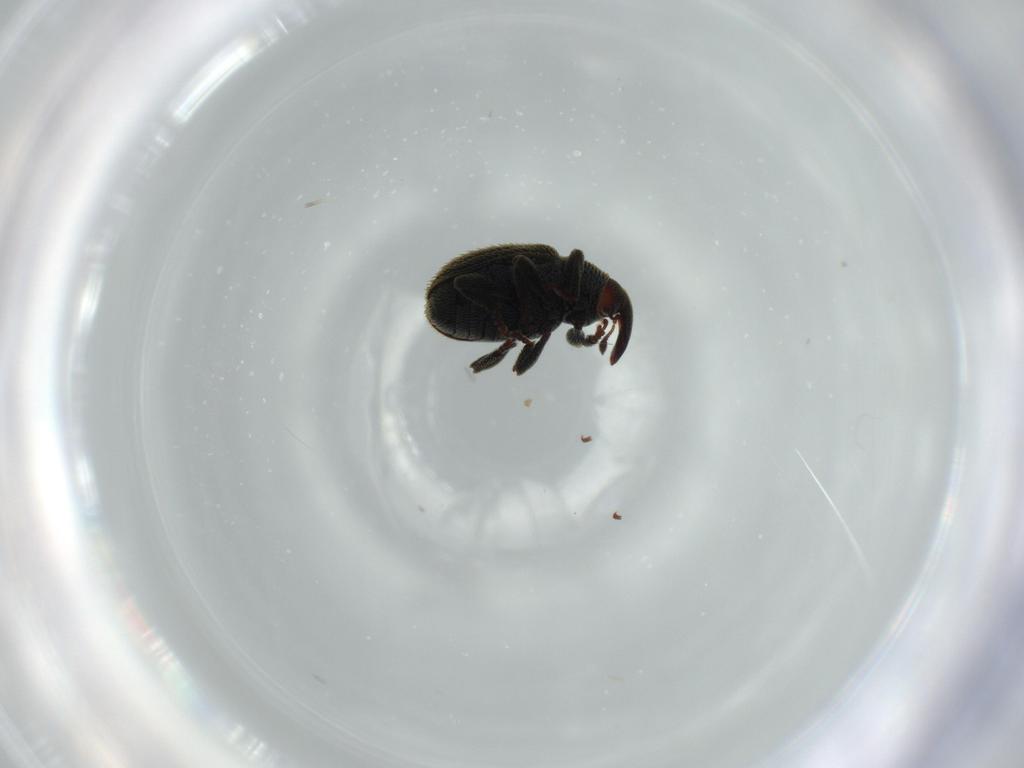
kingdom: Animalia
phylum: Arthropoda
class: Insecta
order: Coleoptera
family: Curculionidae
